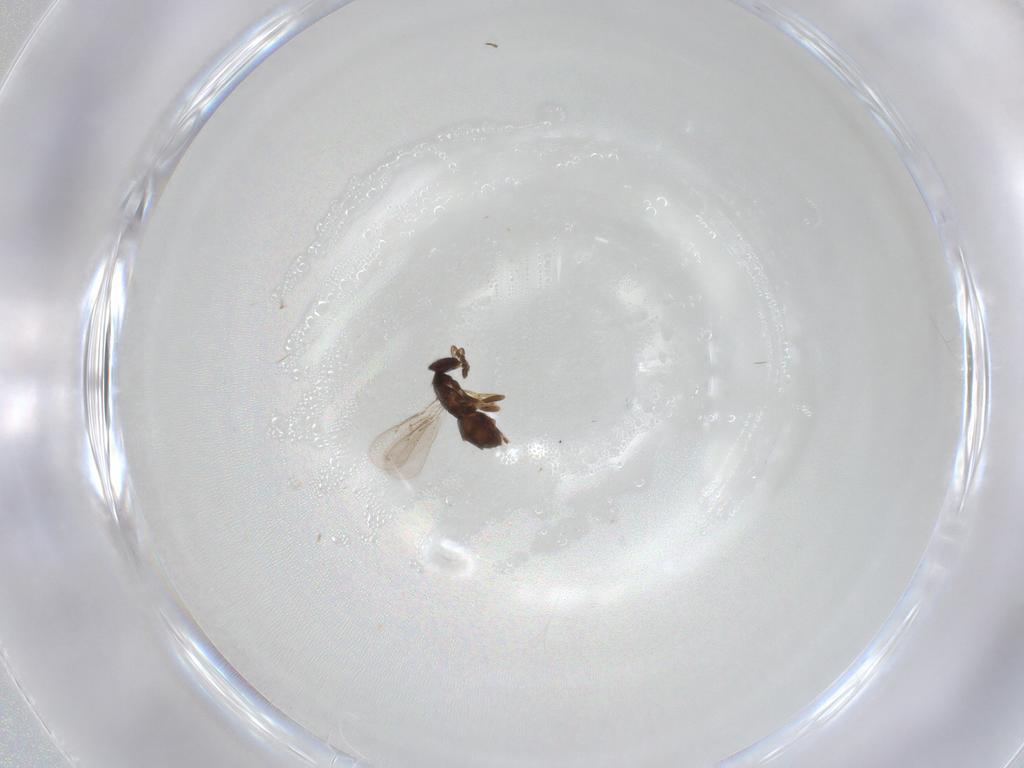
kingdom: Animalia
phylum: Arthropoda
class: Insecta
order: Hymenoptera
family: Eulophidae
